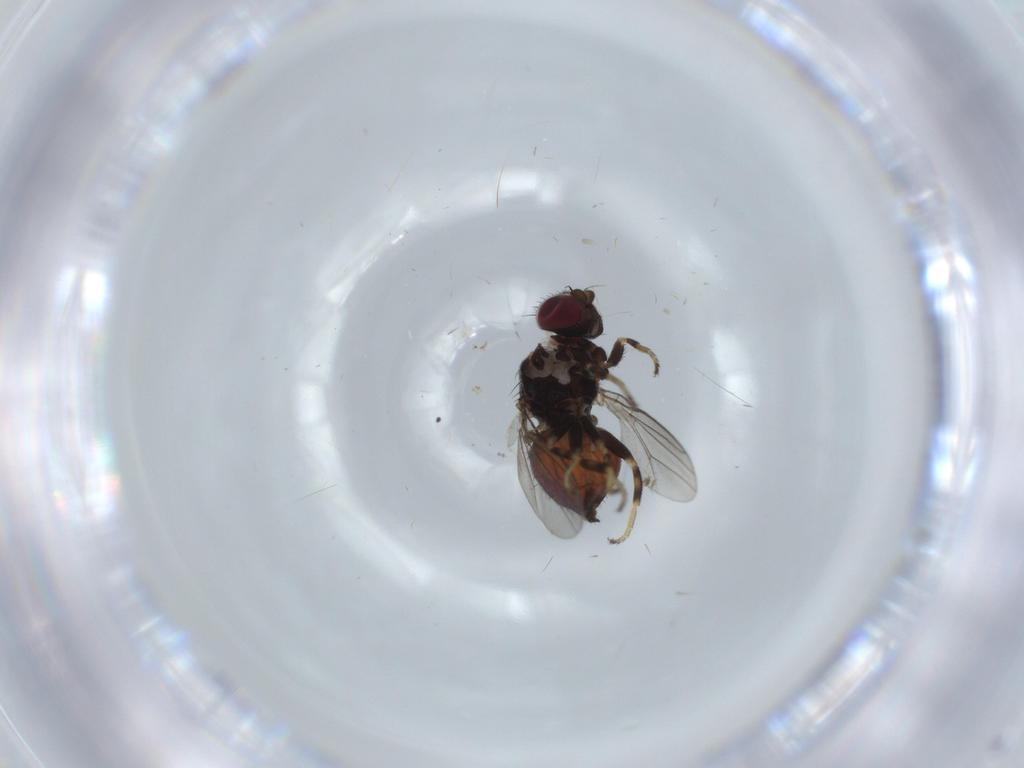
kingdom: Animalia
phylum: Arthropoda
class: Insecta
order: Diptera
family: Chloropidae
